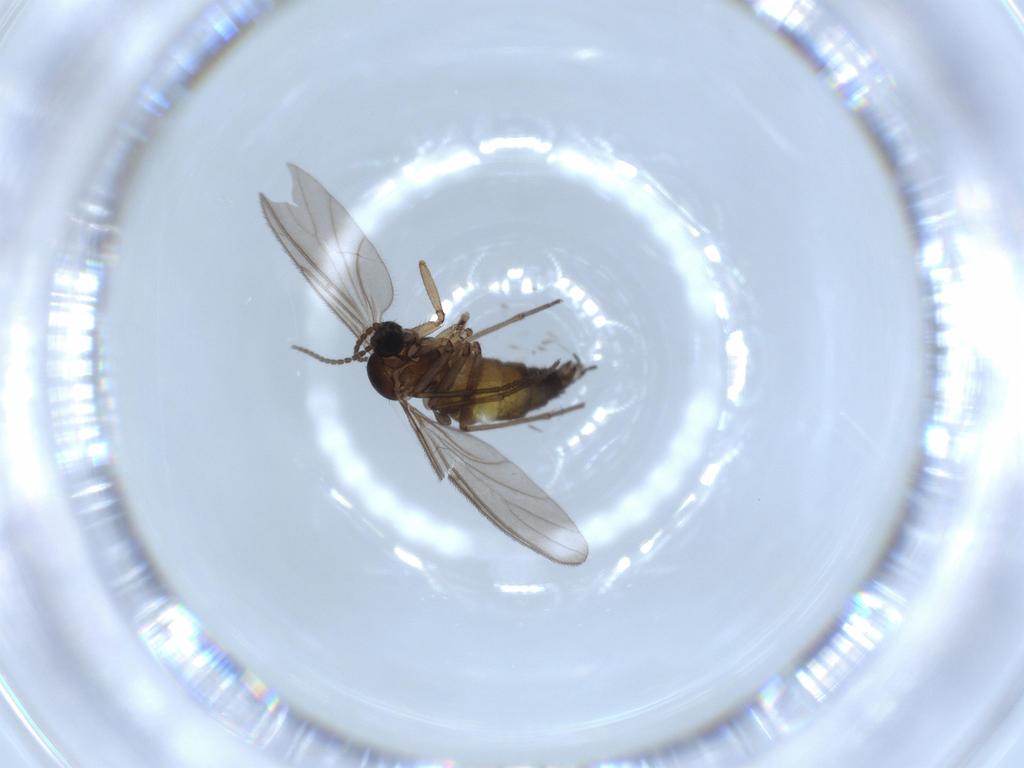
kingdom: Animalia
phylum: Arthropoda
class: Insecta
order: Diptera
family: Sciaridae
